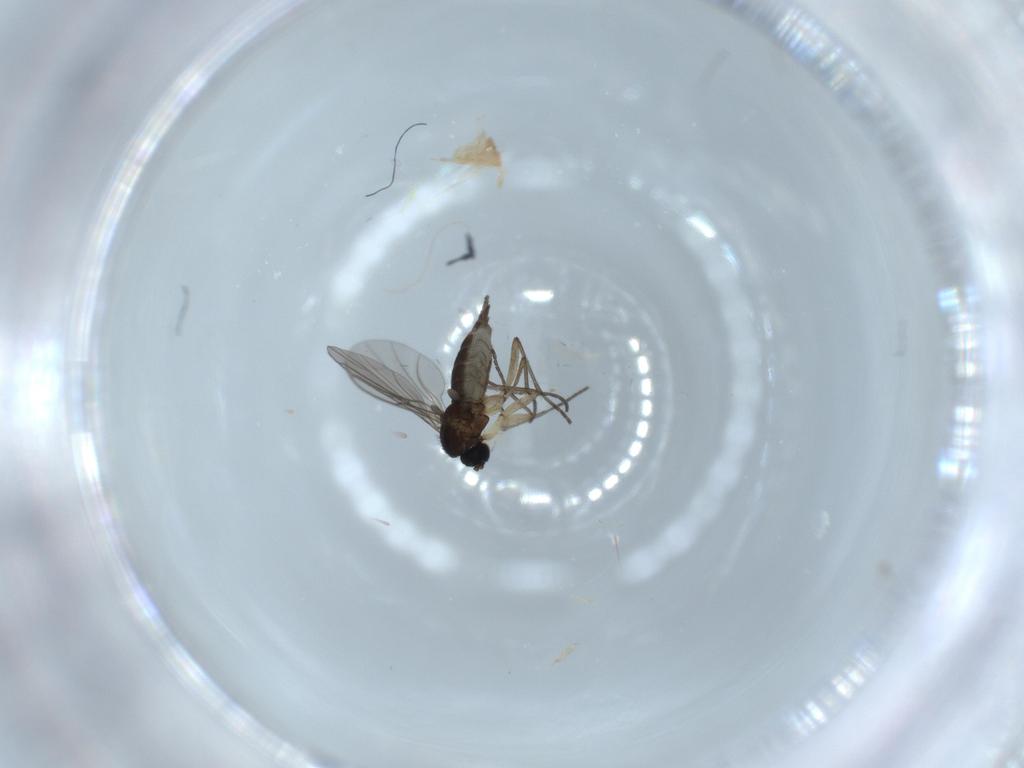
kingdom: Animalia
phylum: Arthropoda
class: Insecta
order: Diptera
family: Sciaridae
